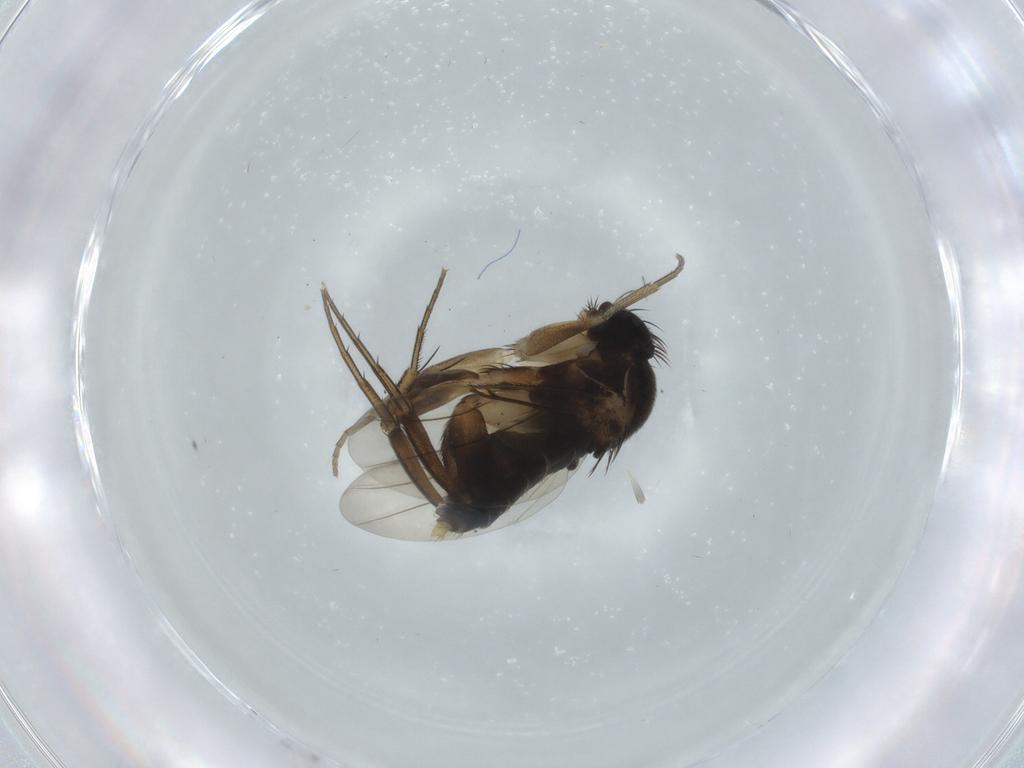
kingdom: Animalia
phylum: Arthropoda
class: Insecta
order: Diptera
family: Phoridae
